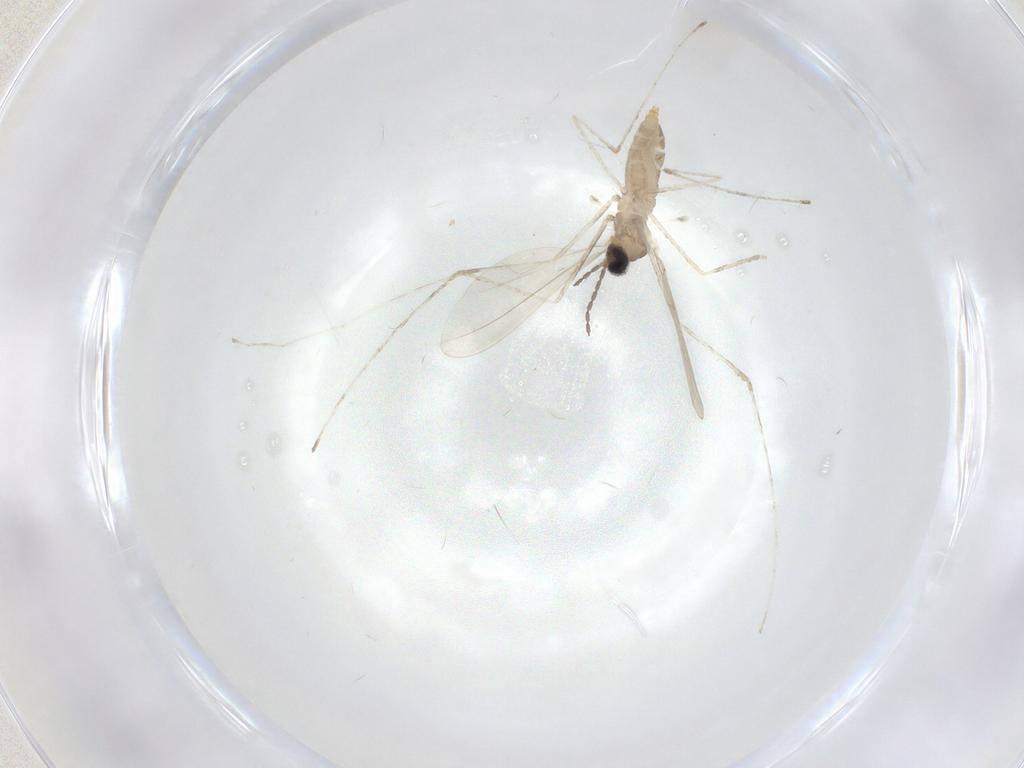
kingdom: Animalia
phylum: Arthropoda
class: Insecta
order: Diptera
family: Cecidomyiidae
